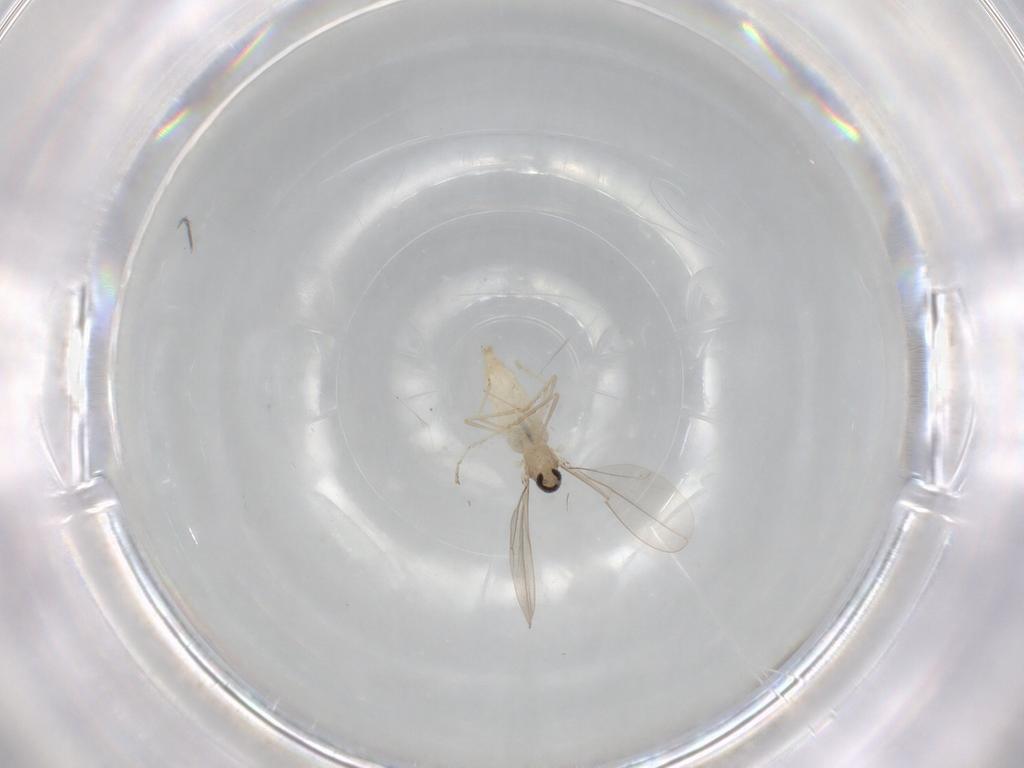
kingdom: Animalia
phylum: Arthropoda
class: Insecta
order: Diptera
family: Cecidomyiidae
